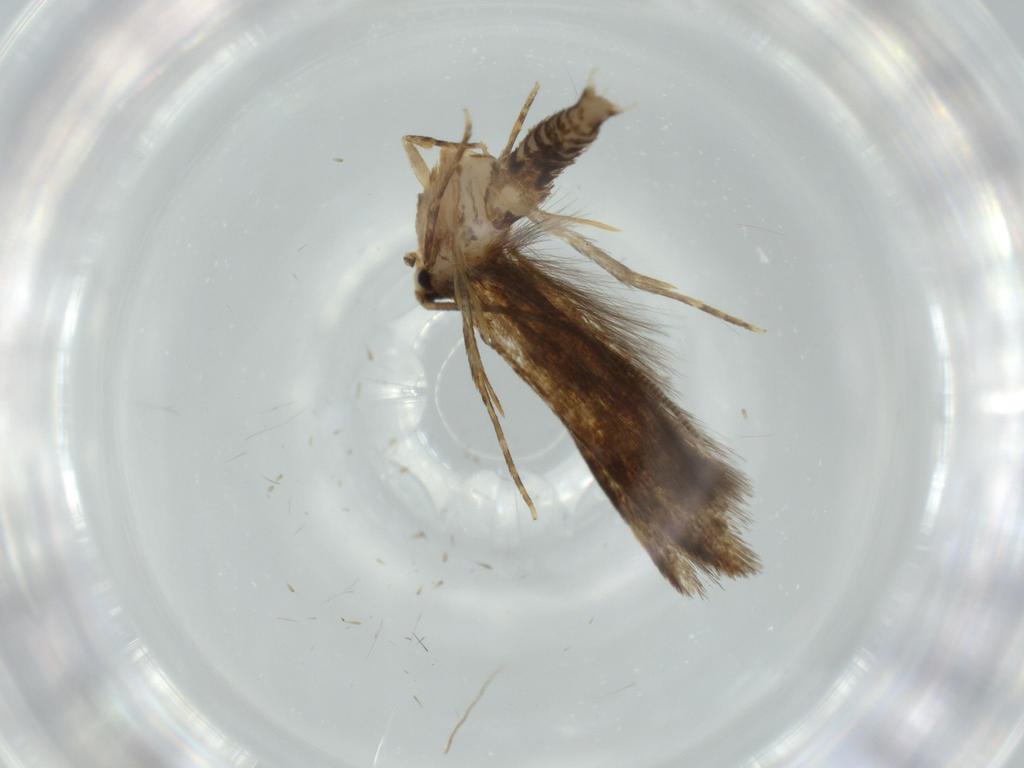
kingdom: Animalia
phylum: Arthropoda
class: Insecta
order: Lepidoptera
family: Tineidae
